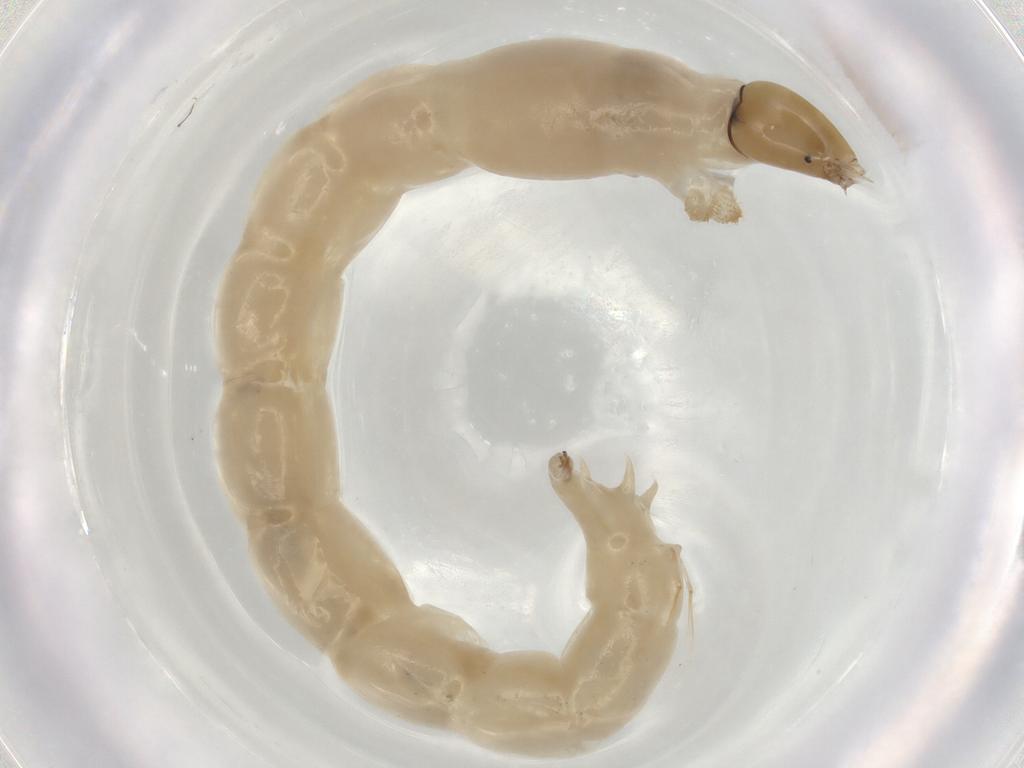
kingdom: Animalia
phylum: Arthropoda
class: Insecta
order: Diptera
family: Chironomidae
